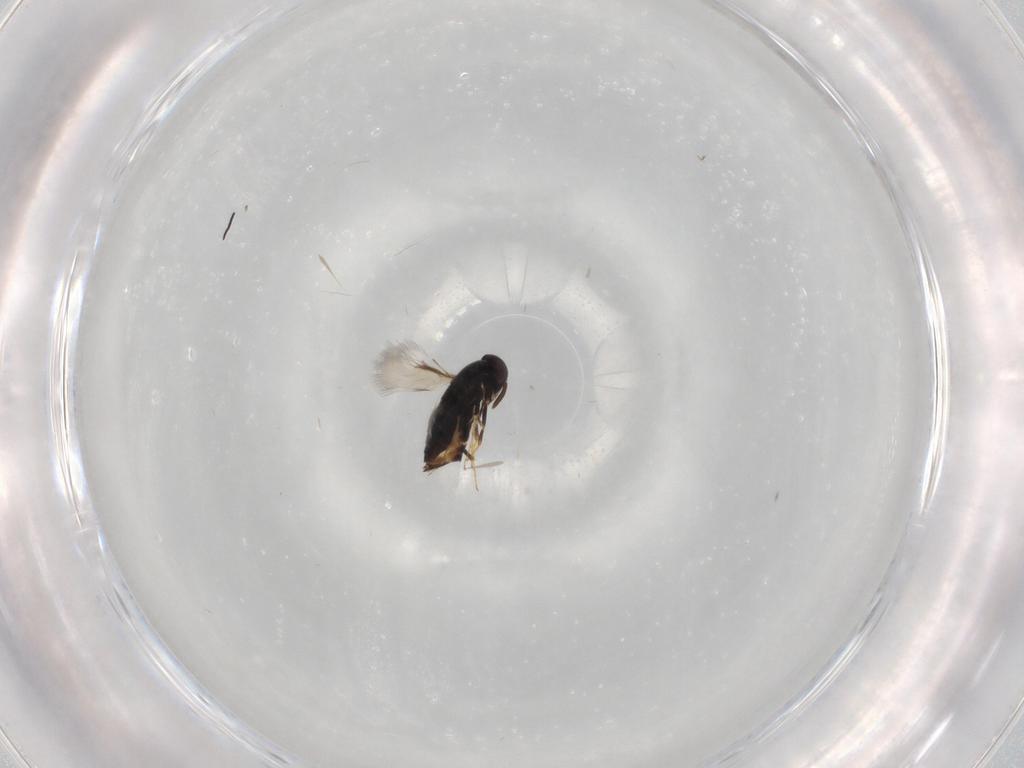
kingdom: Animalia
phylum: Arthropoda
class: Insecta
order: Hymenoptera
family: Signiphoridae
